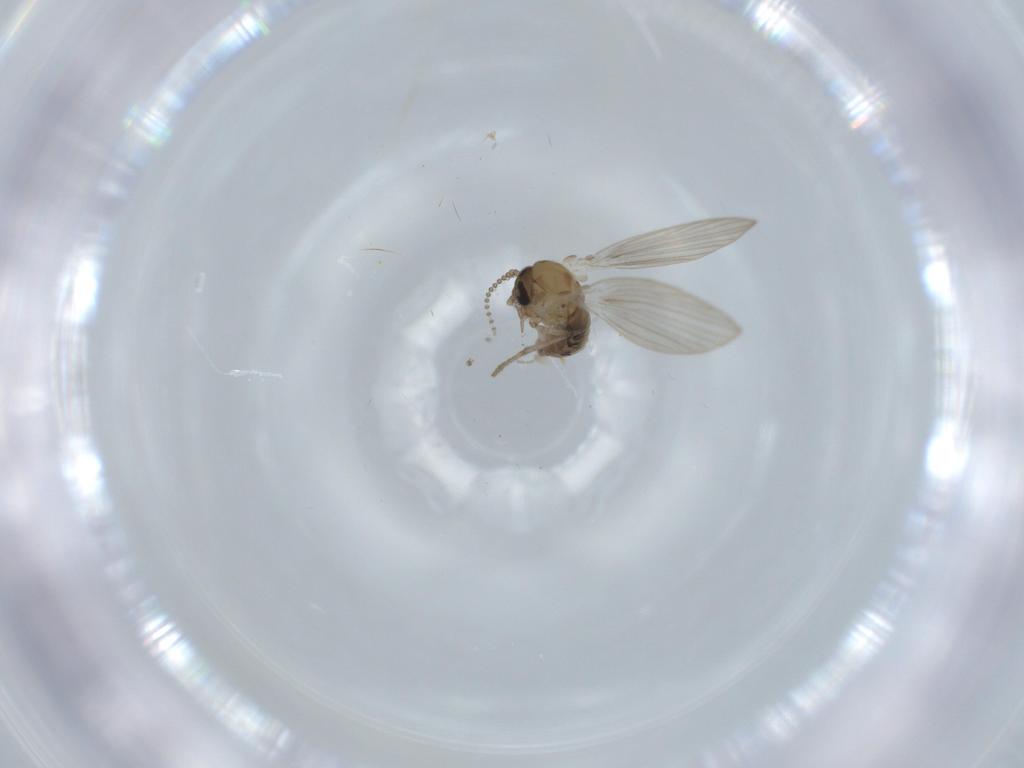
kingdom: Animalia
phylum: Arthropoda
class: Insecta
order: Diptera
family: Psychodidae
